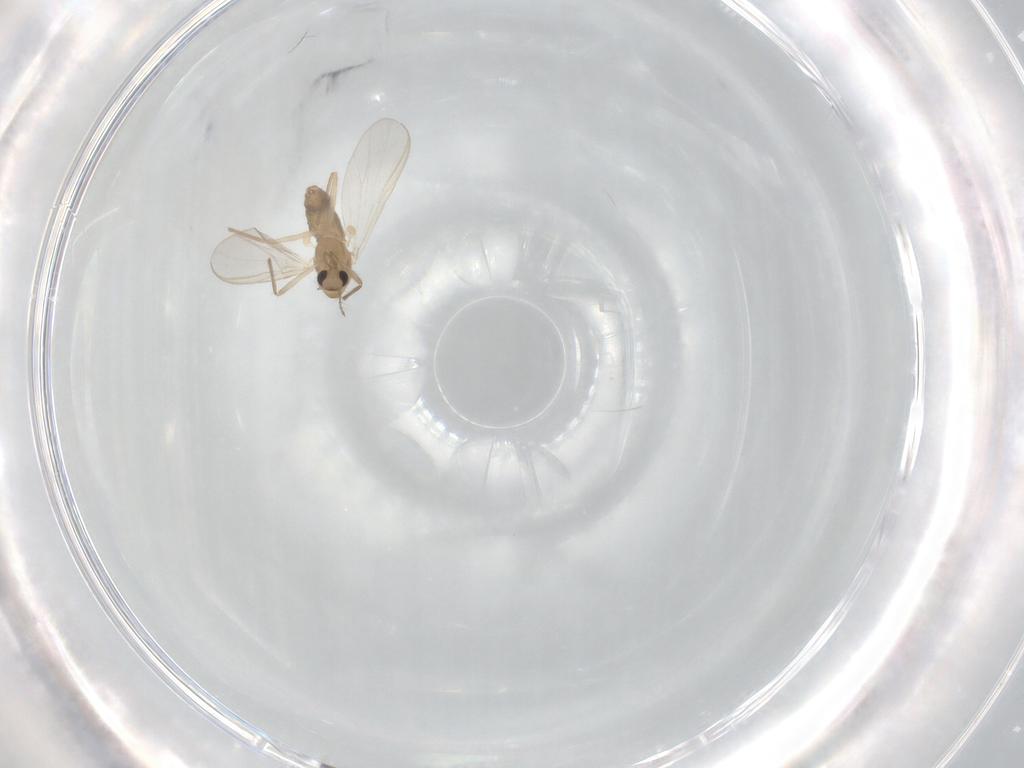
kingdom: Animalia
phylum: Arthropoda
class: Insecta
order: Diptera
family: Chironomidae
